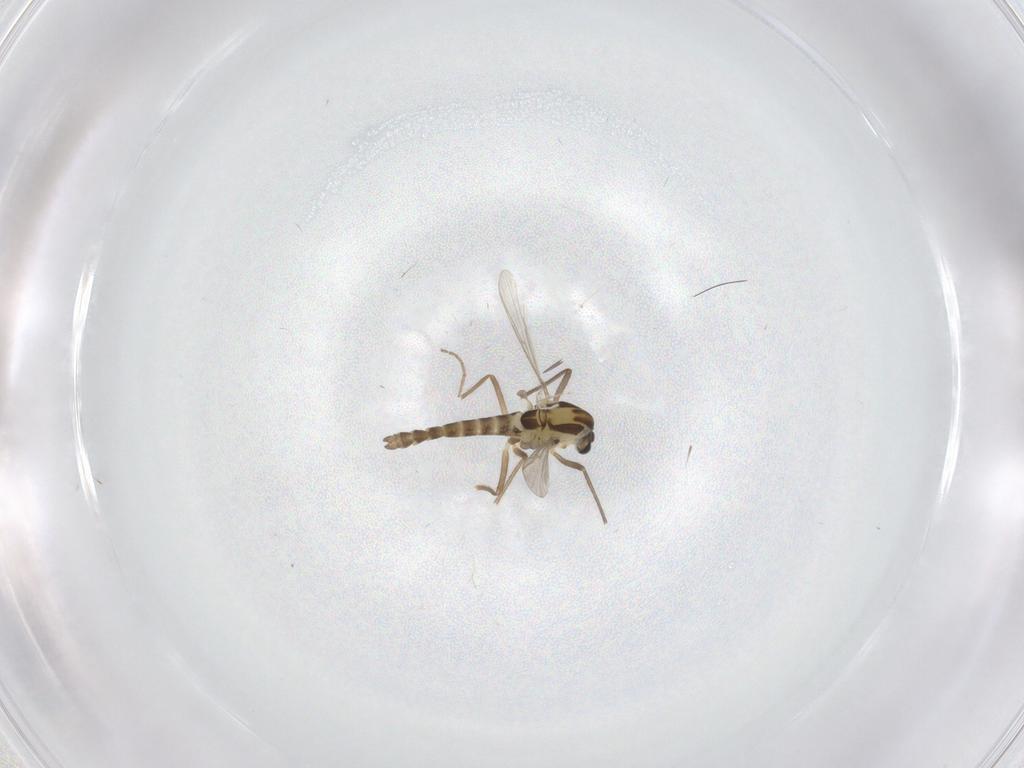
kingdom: Animalia
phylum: Arthropoda
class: Insecta
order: Diptera
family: Chironomidae
